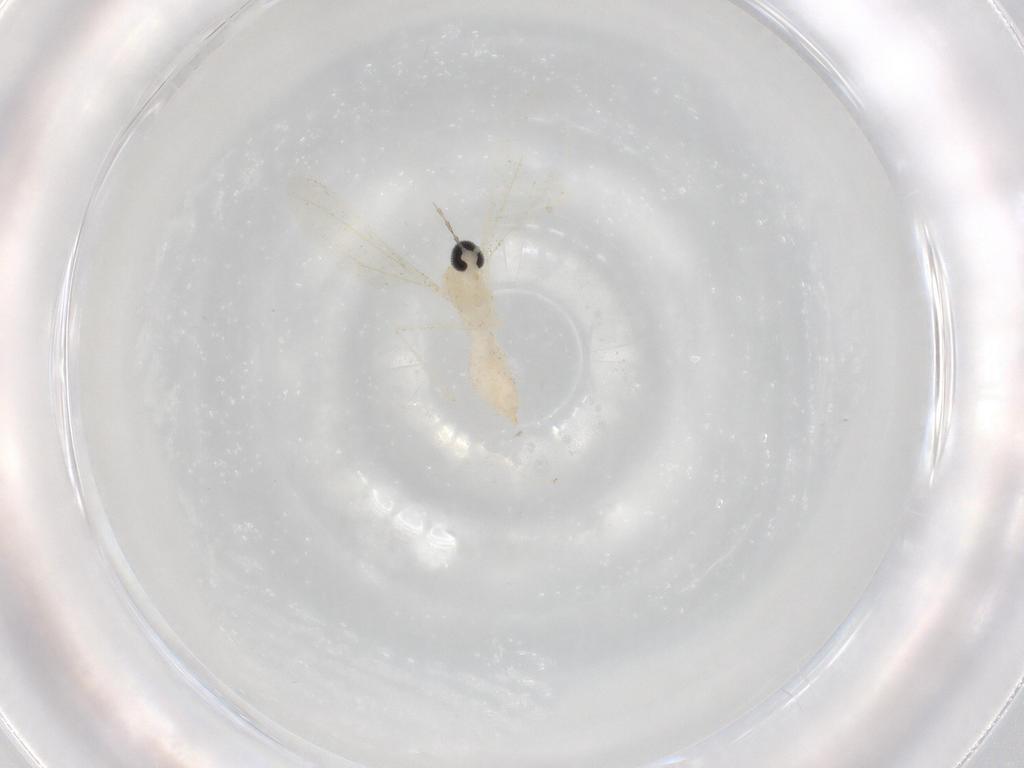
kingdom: Animalia
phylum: Arthropoda
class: Insecta
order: Diptera
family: Cecidomyiidae
